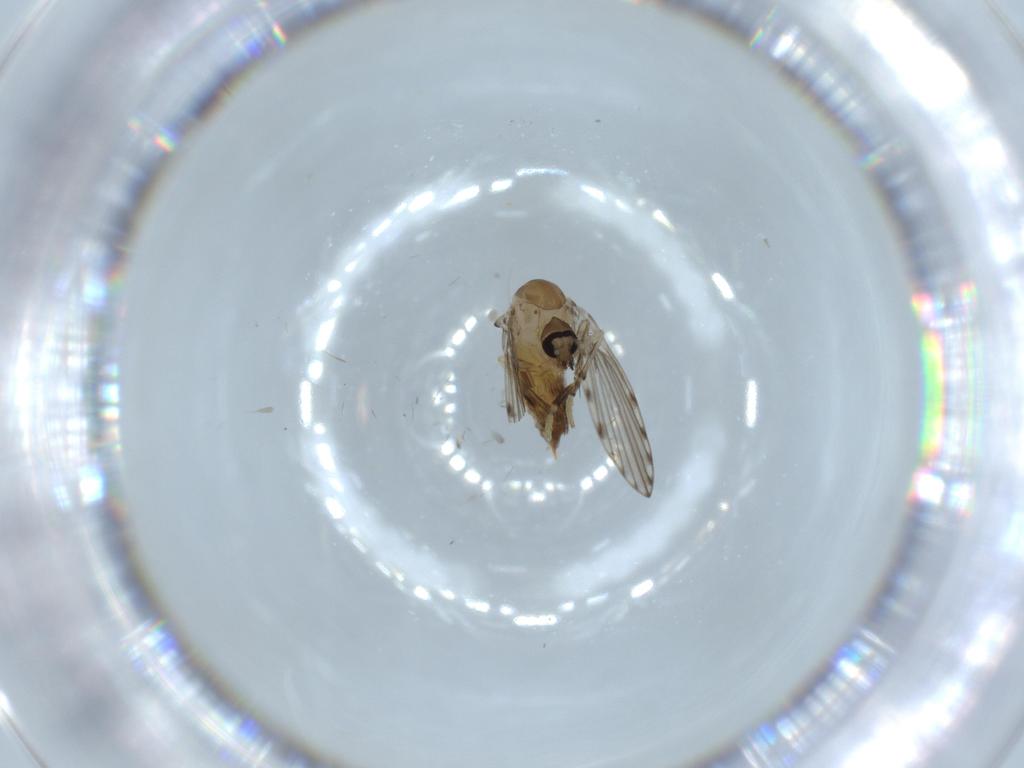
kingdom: Animalia
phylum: Arthropoda
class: Insecta
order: Diptera
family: Psychodidae
